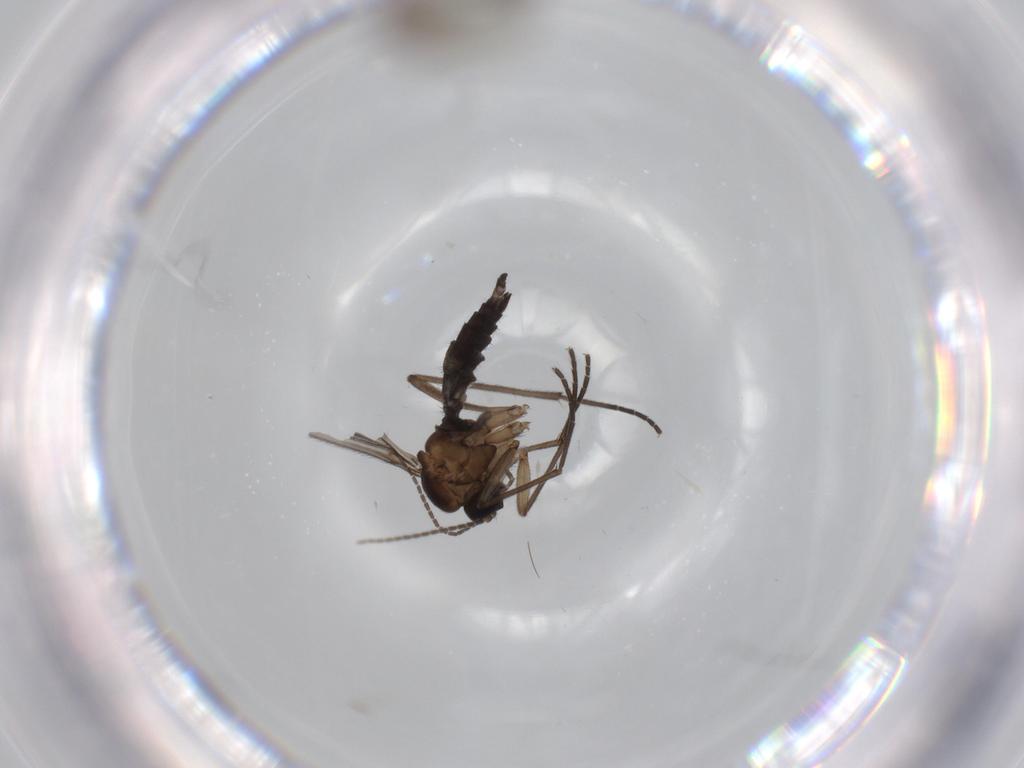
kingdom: Animalia
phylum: Arthropoda
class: Insecta
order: Diptera
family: Sciaridae
